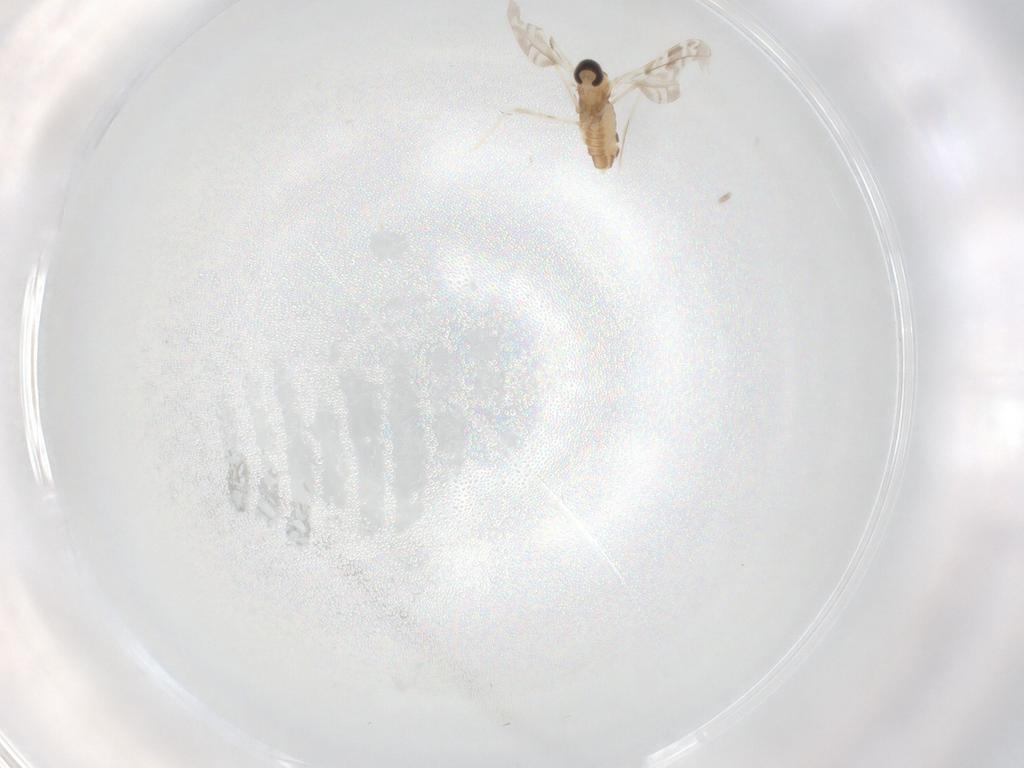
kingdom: Animalia
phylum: Arthropoda
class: Insecta
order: Diptera
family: Cecidomyiidae
